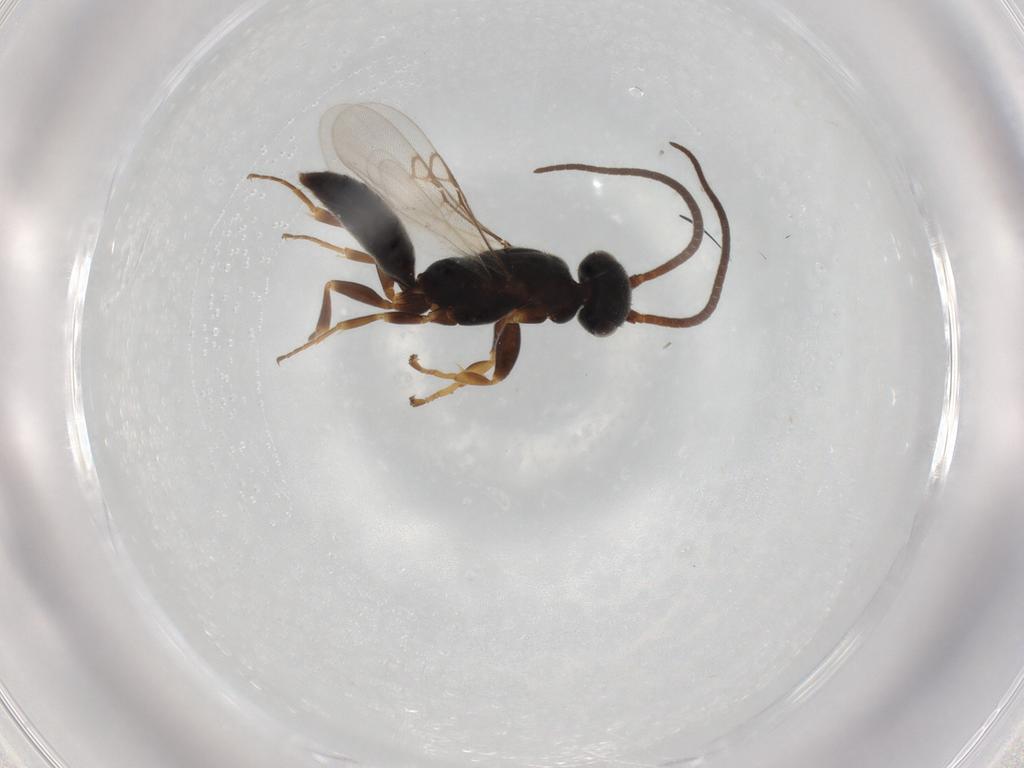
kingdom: Animalia
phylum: Arthropoda
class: Insecta
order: Hymenoptera
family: Sclerogibbidae
